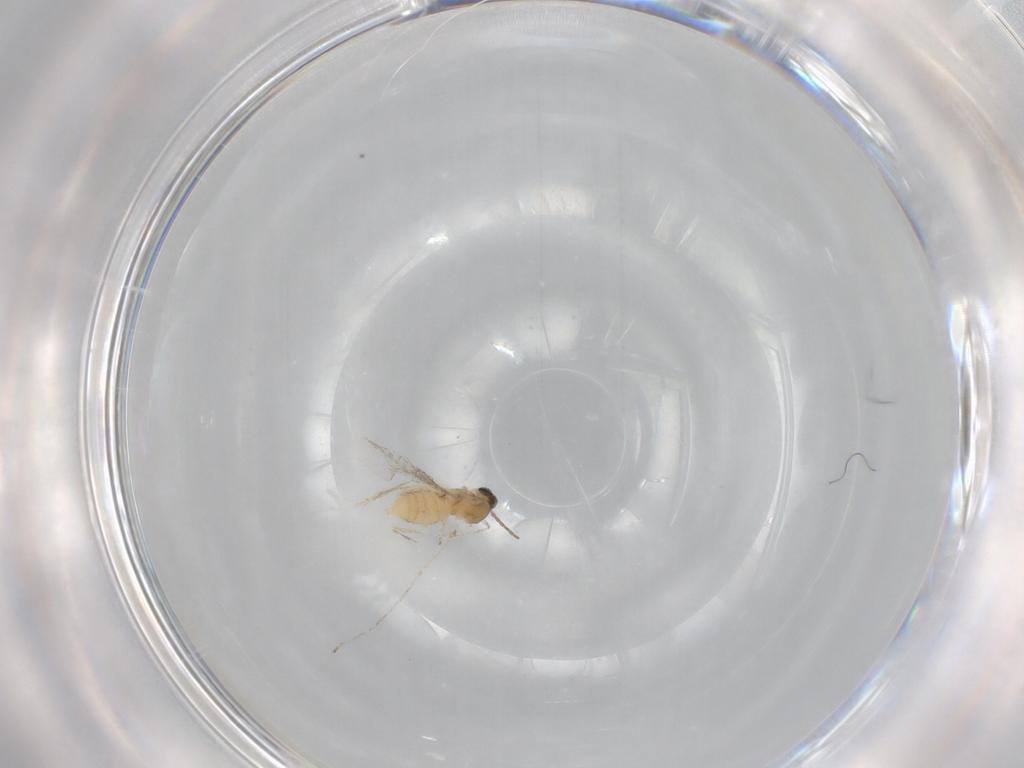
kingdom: Animalia
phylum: Arthropoda
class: Insecta
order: Diptera
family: Cecidomyiidae
